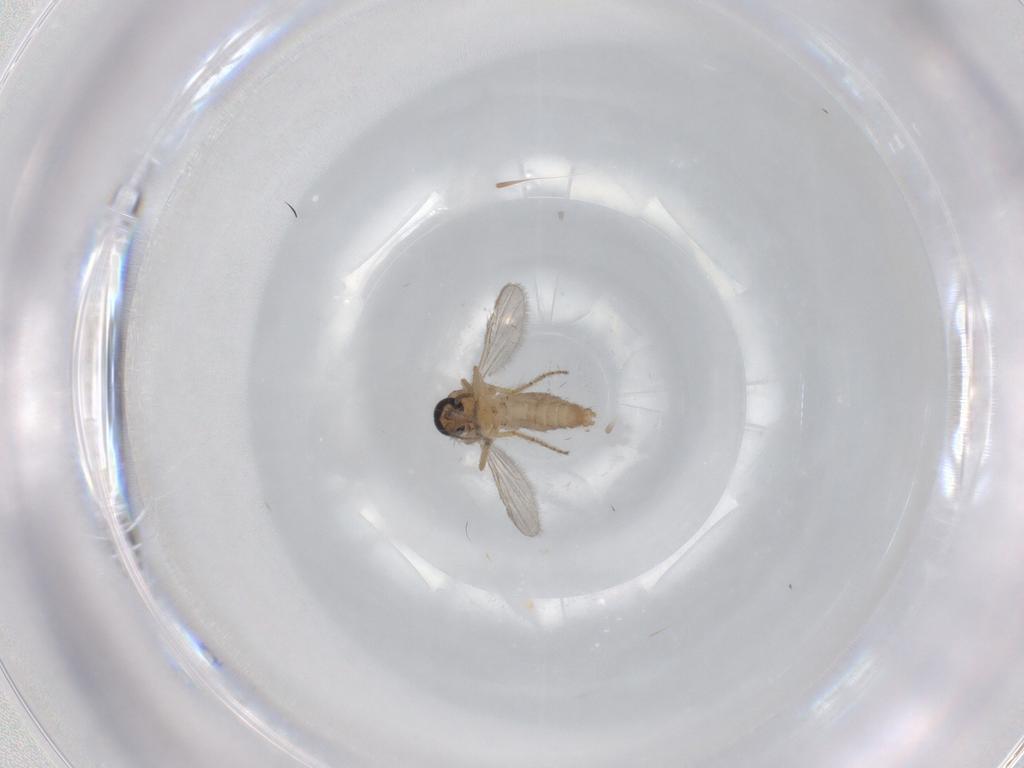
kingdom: Animalia
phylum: Arthropoda
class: Insecta
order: Diptera
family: Ceratopogonidae
